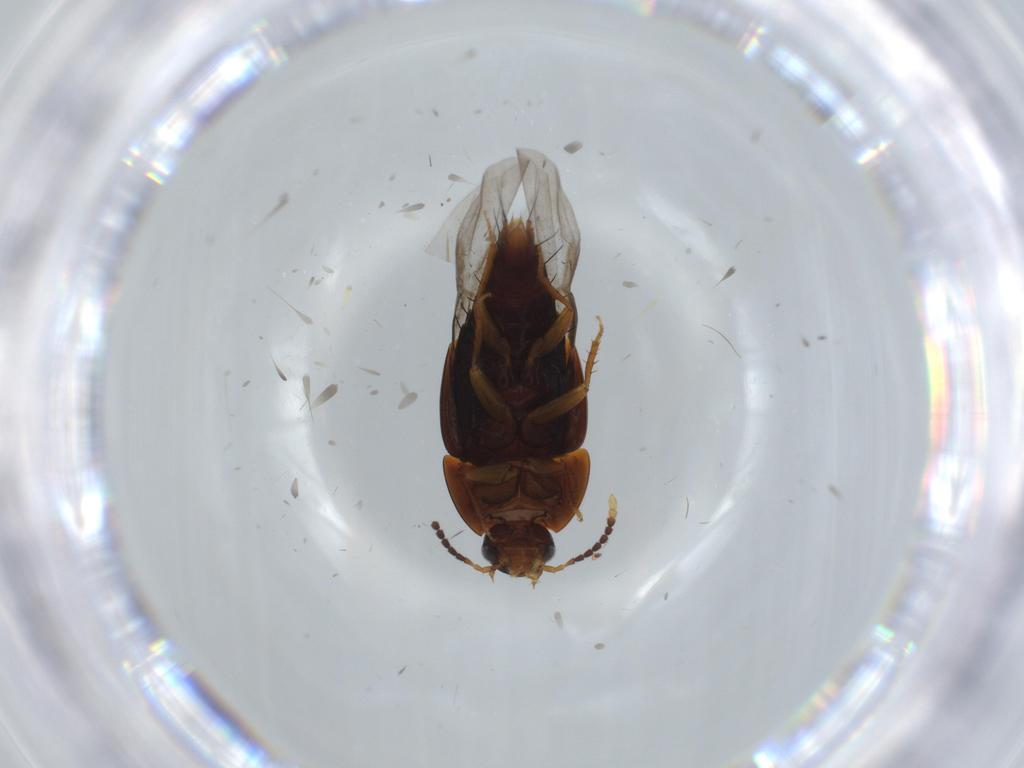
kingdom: Animalia
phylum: Arthropoda
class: Insecta
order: Coleoptera
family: Staphylinidae
